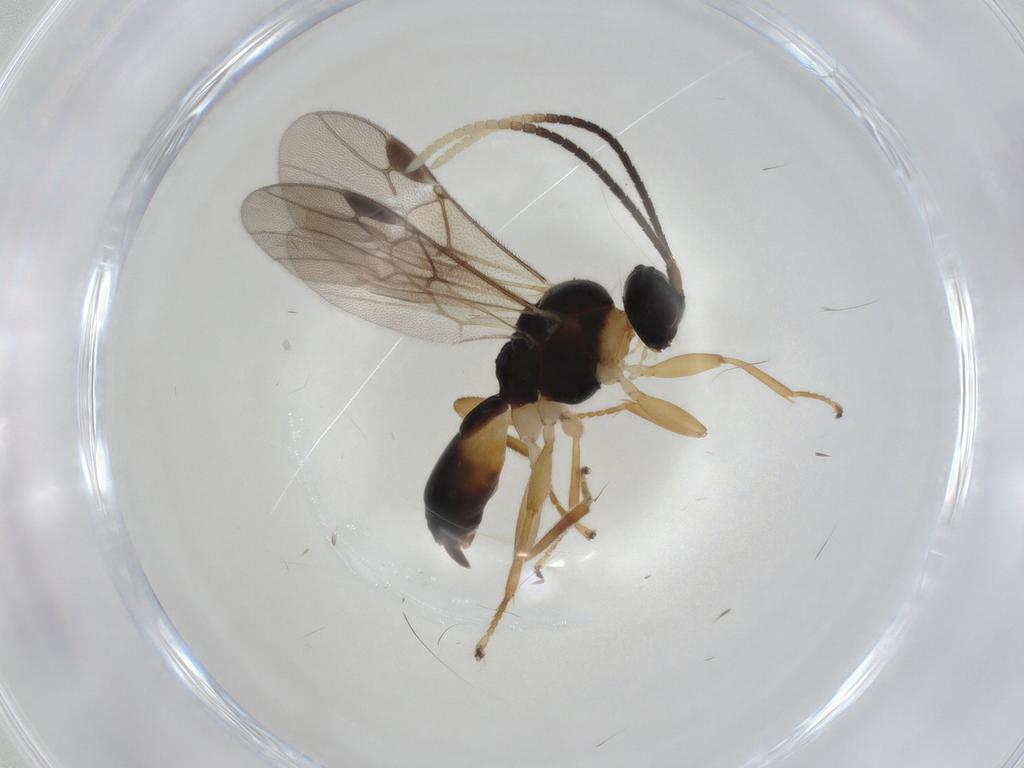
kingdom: Animalia
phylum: Arthropoda
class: Insecta
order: Hymenoptera
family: Braconidae
